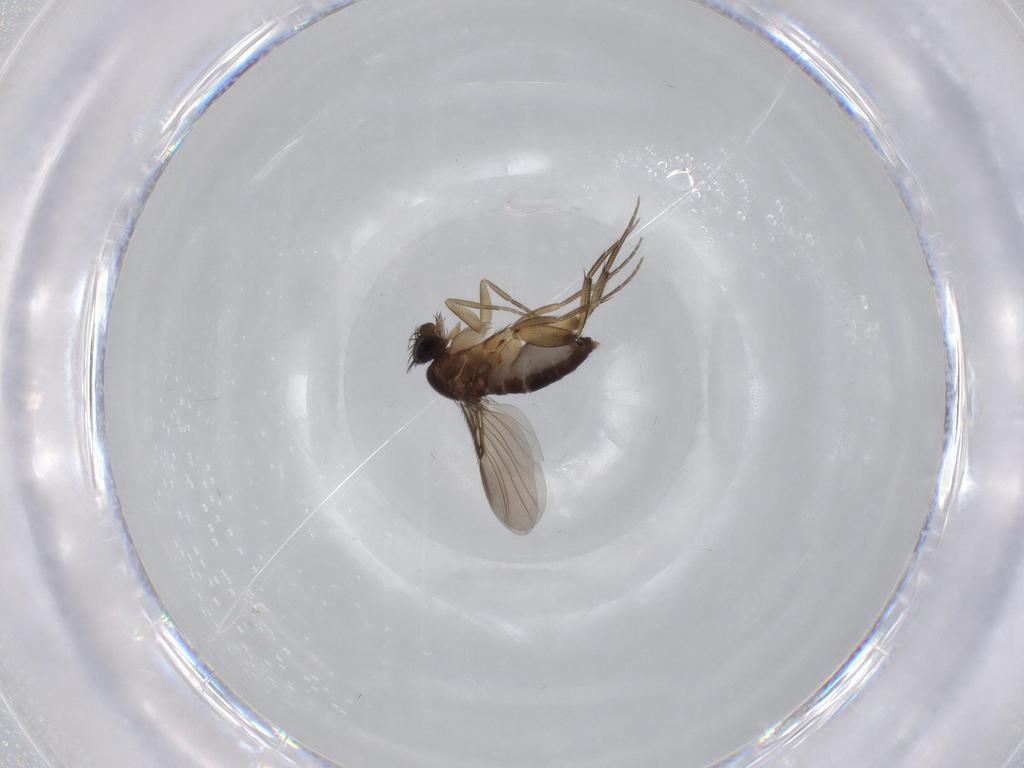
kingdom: Animalia
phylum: Arthropoda
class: Insecta
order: Diptera
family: Phoridae
